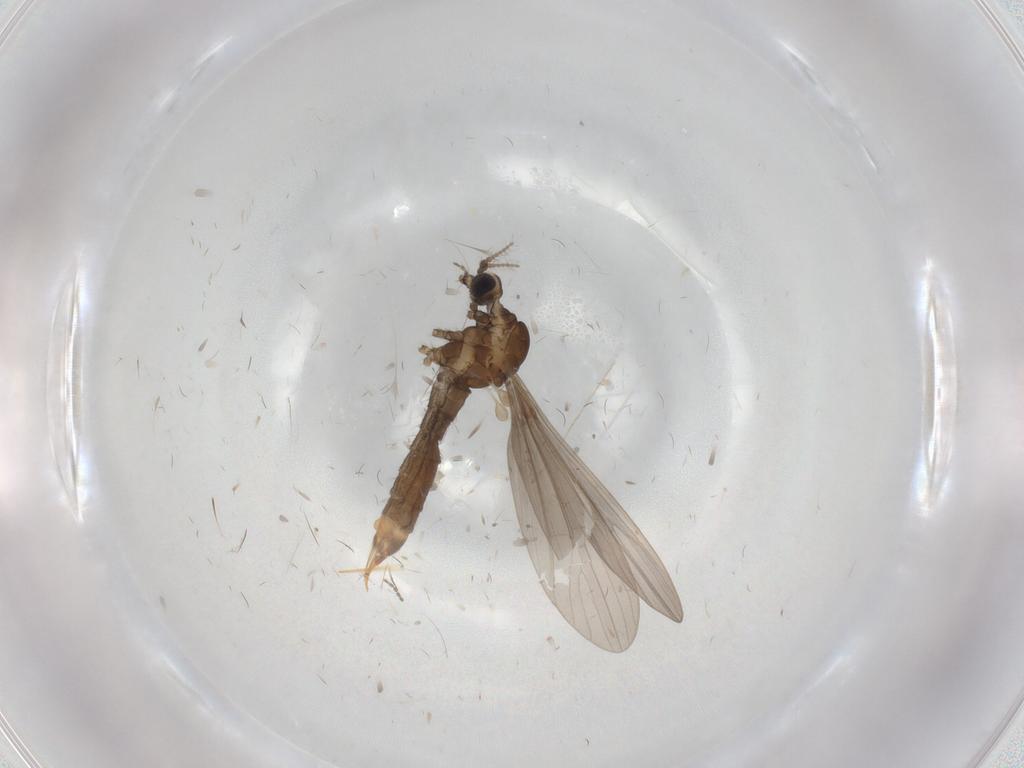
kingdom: Animalia
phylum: Arthropoda
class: Insecta
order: Diptera
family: Limoniidae
